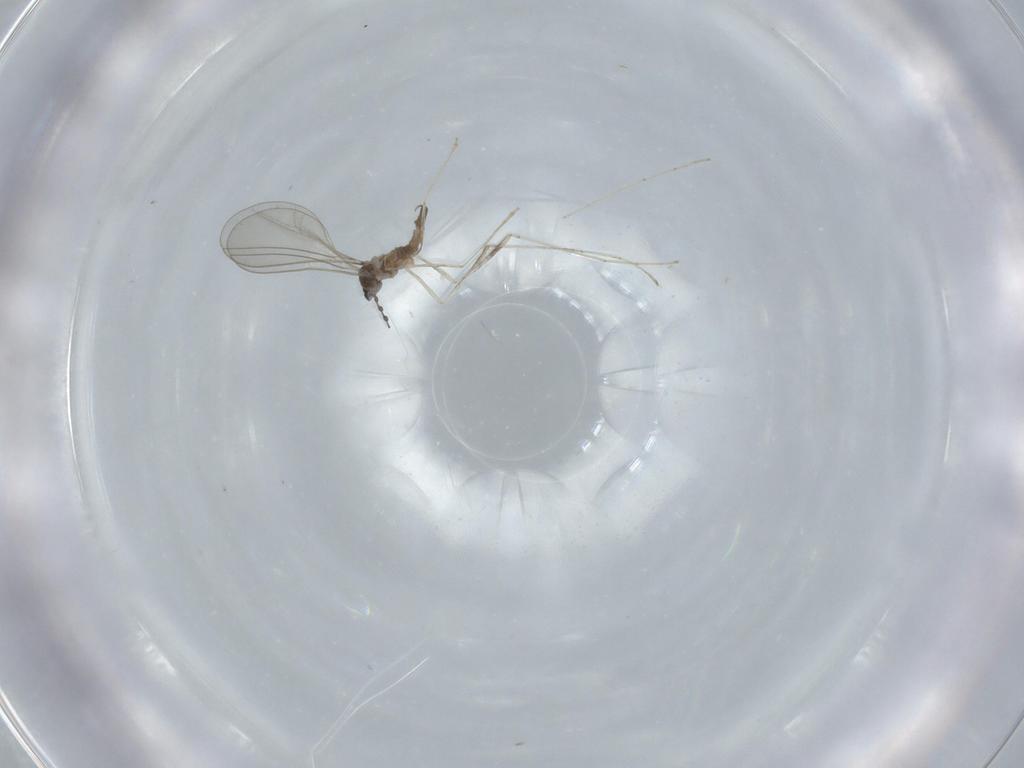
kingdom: Animalia
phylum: Arthropoda
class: Insecta
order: Diptera
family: Cecidomyiidae
